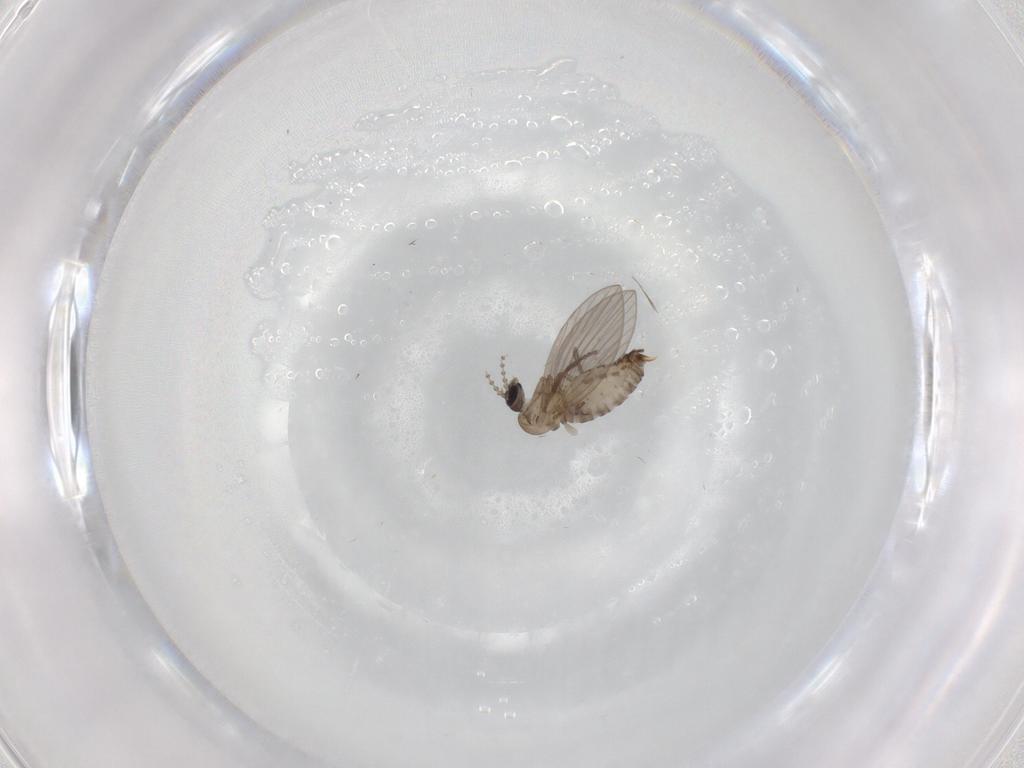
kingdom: Animalia
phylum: Arthropoda
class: Insecta
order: Diptera
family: Psychodidae
